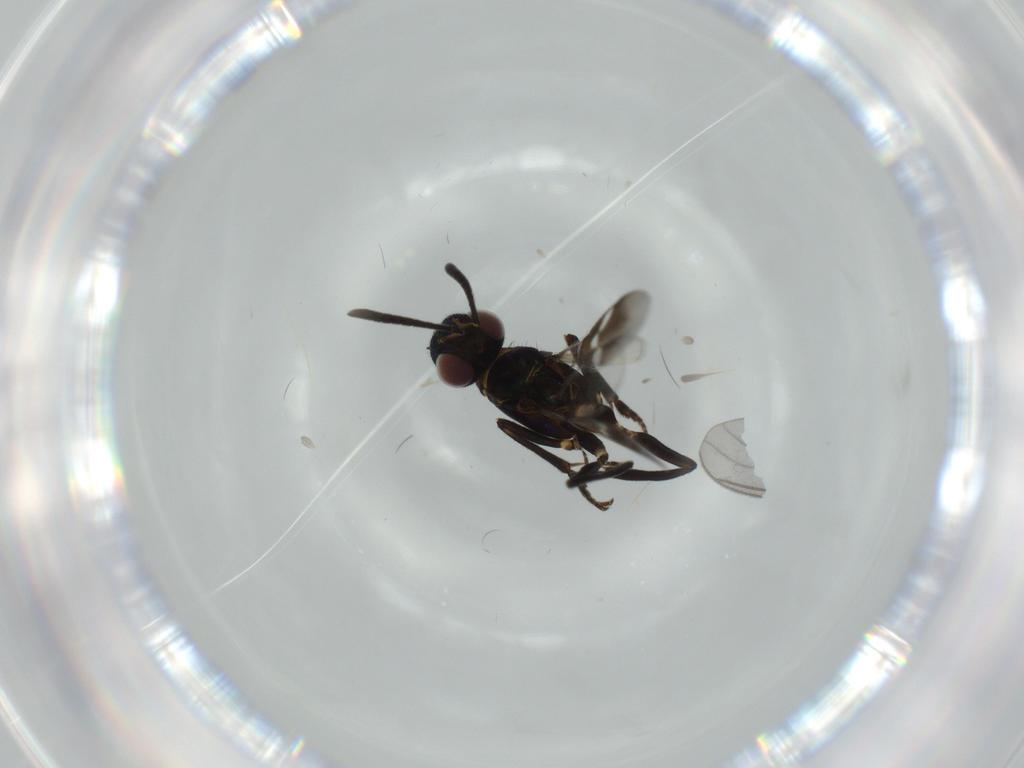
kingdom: Animalia
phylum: Arthropoda
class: Insecta
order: Hymenoptera
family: Eupelmidae
